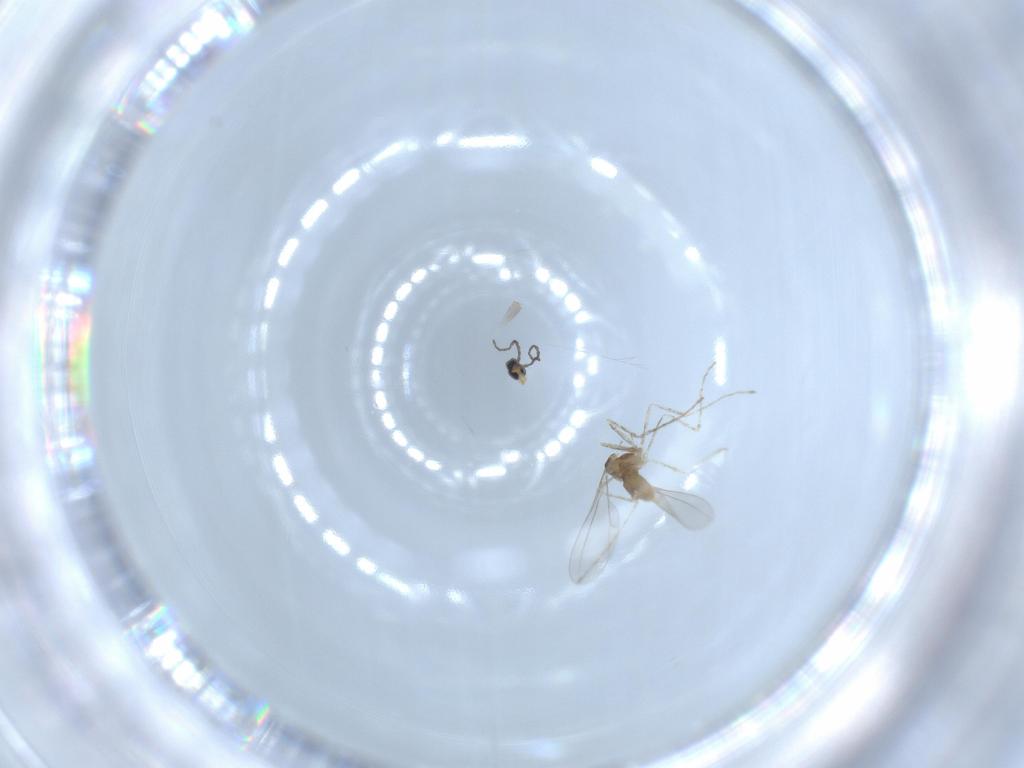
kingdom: Animalia
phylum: Arthropoda
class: Insecta
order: Diptera
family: Cecidomyiidae
